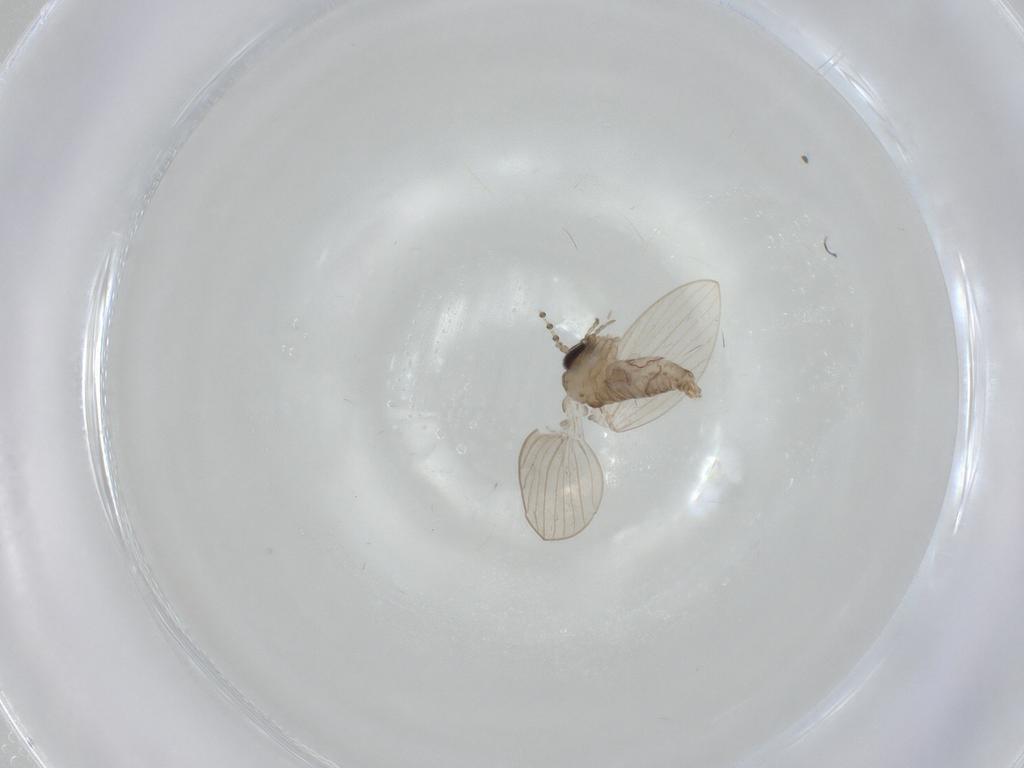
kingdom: Animalia
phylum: Arthropoda
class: Insecta
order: Diptera
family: Psychodidae
